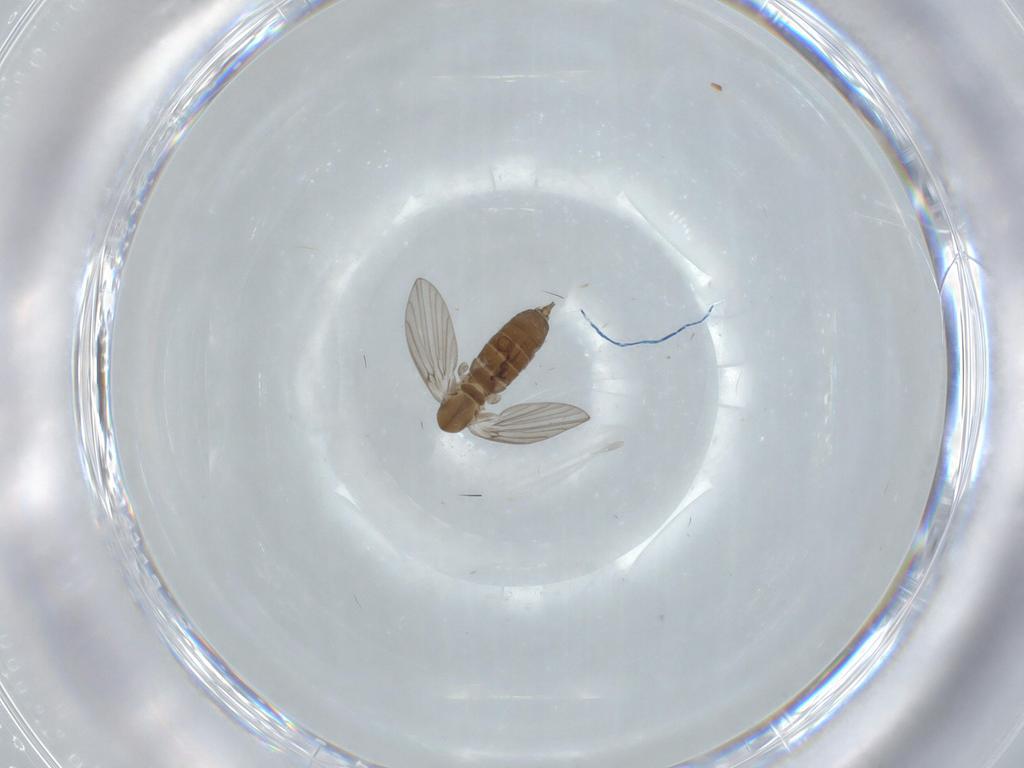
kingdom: Animalia
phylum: Arthropoda
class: Insecta
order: Diptera
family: Psychodidae
